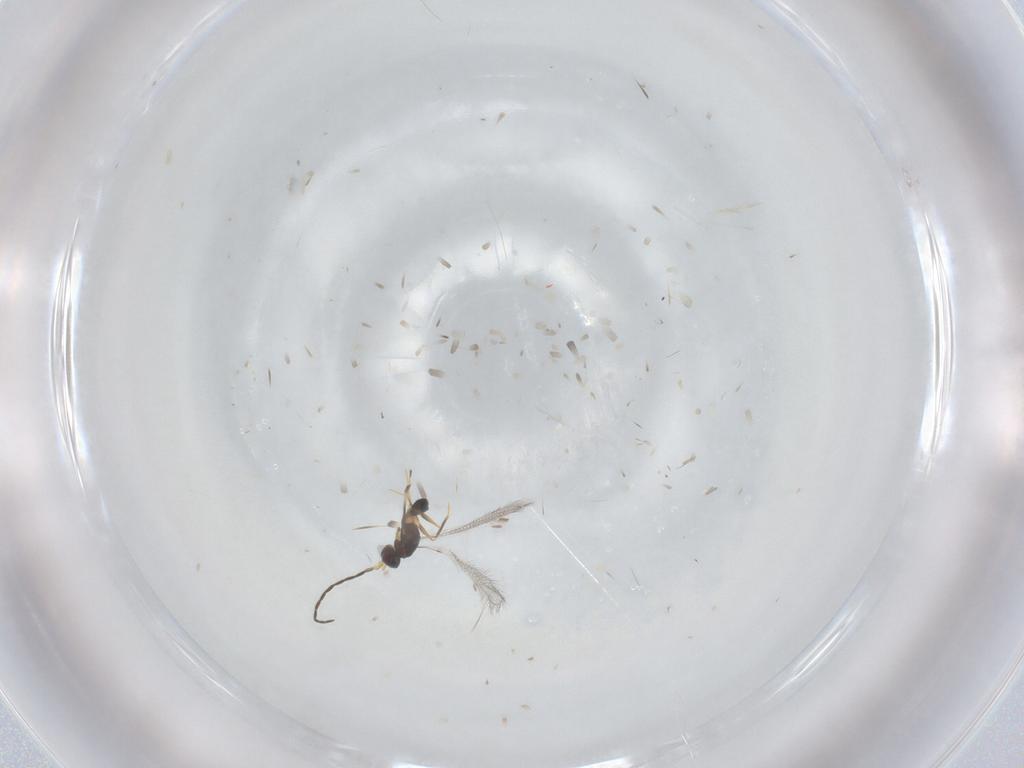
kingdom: Animalia
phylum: Arthropoda
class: Insecta
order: Hymenoptera
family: Mymaridae
